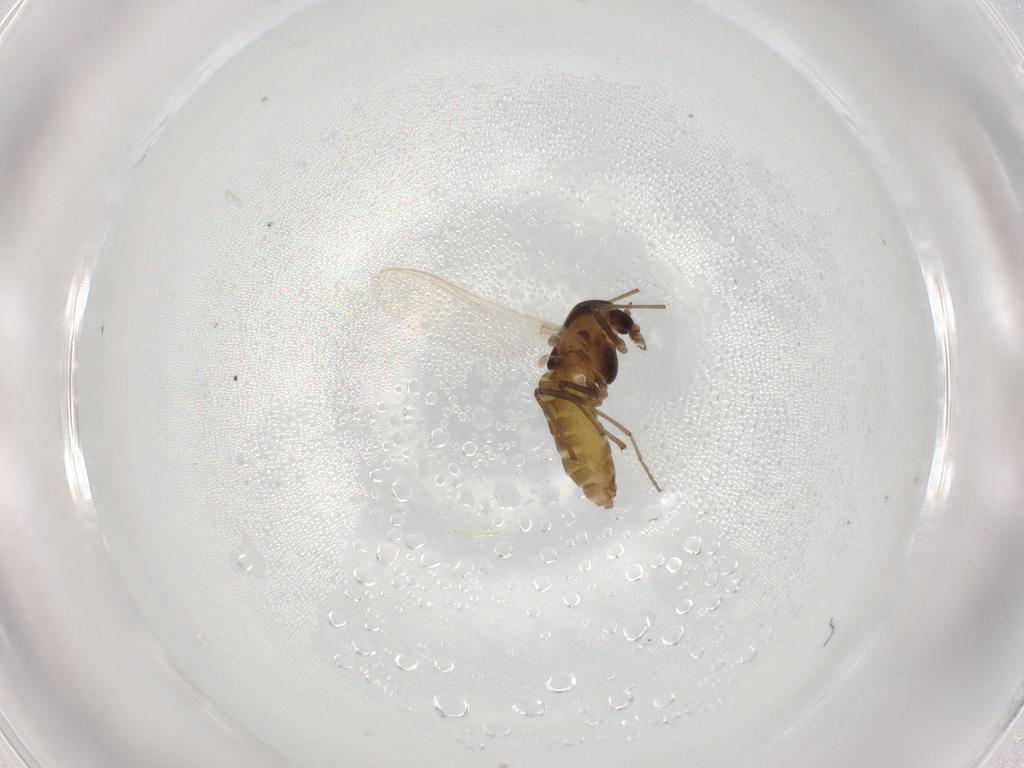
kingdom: Animalia
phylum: Arthropoda
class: Insecta
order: Diptera
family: Chironomidae
